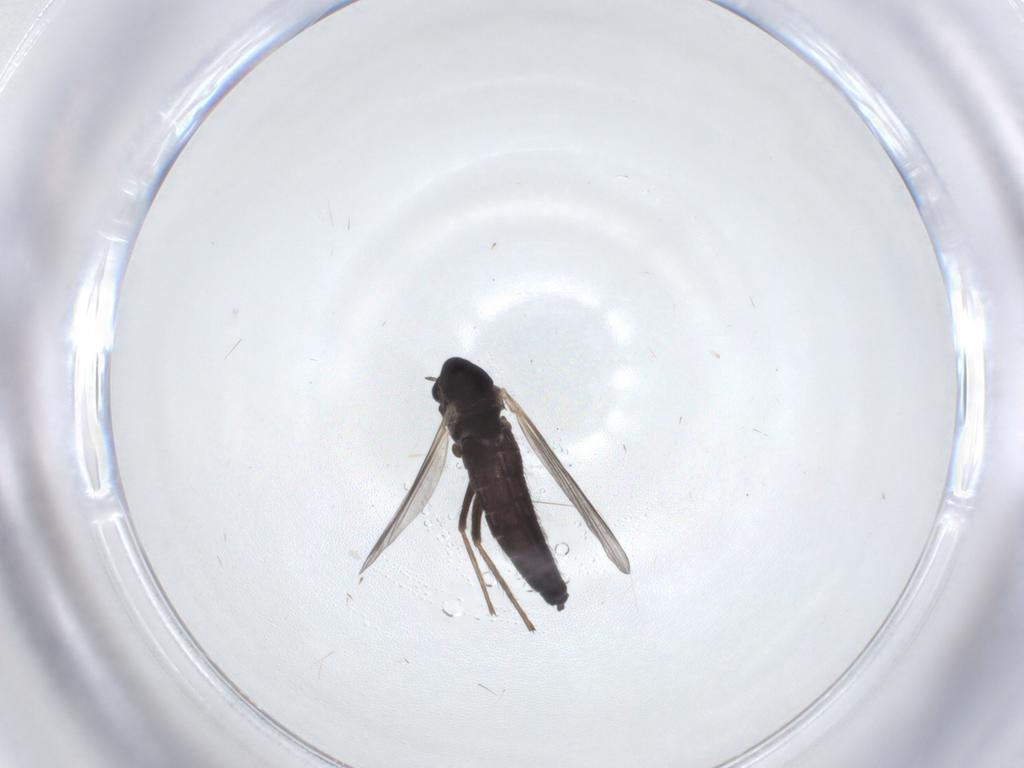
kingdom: Animalia
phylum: Arthropoda
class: Insecta
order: Diptera
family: Chironomidae
